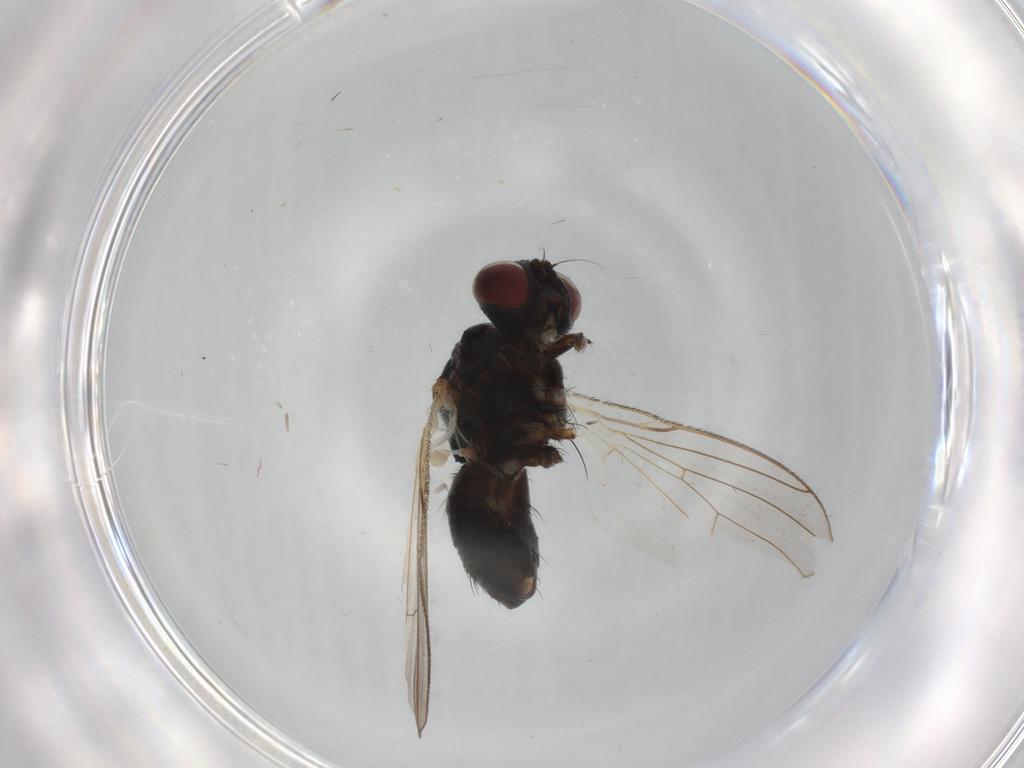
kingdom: Animalia
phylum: Arthropoda
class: Insecta
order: Diptera
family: Chironomidae
